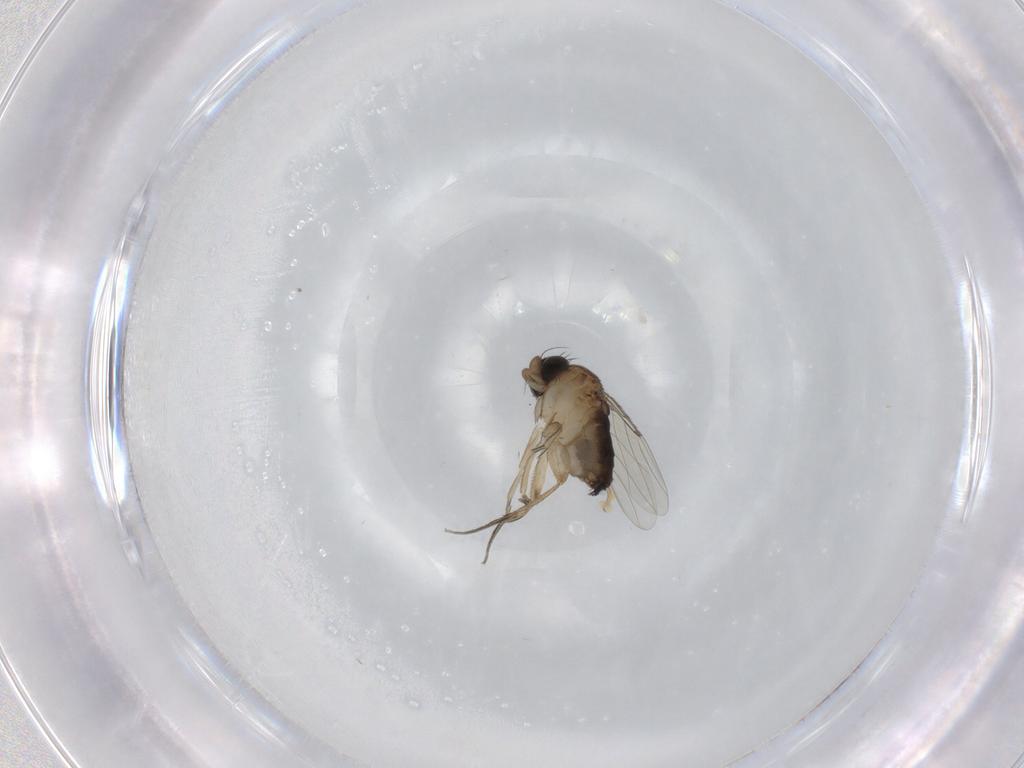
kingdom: Animalia
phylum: Arthropoda
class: Insecta
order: Diptera
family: Phoridae
